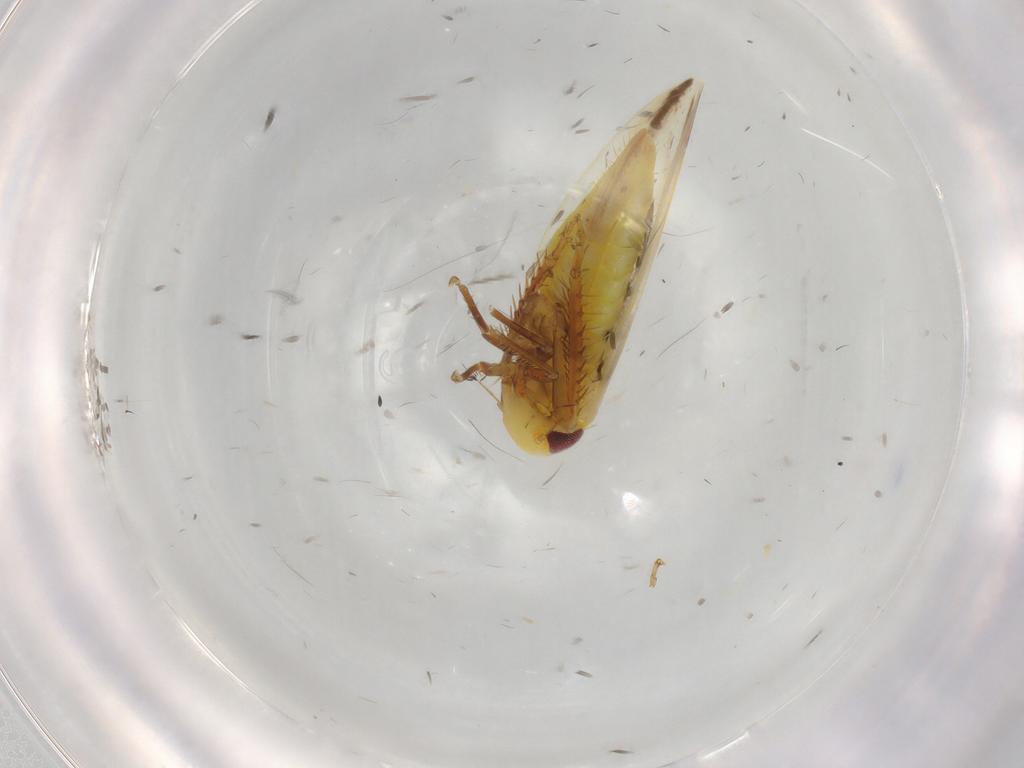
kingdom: Animalia
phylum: Arthropoda
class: Insecta
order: Hemiptera
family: Cicadellidae
